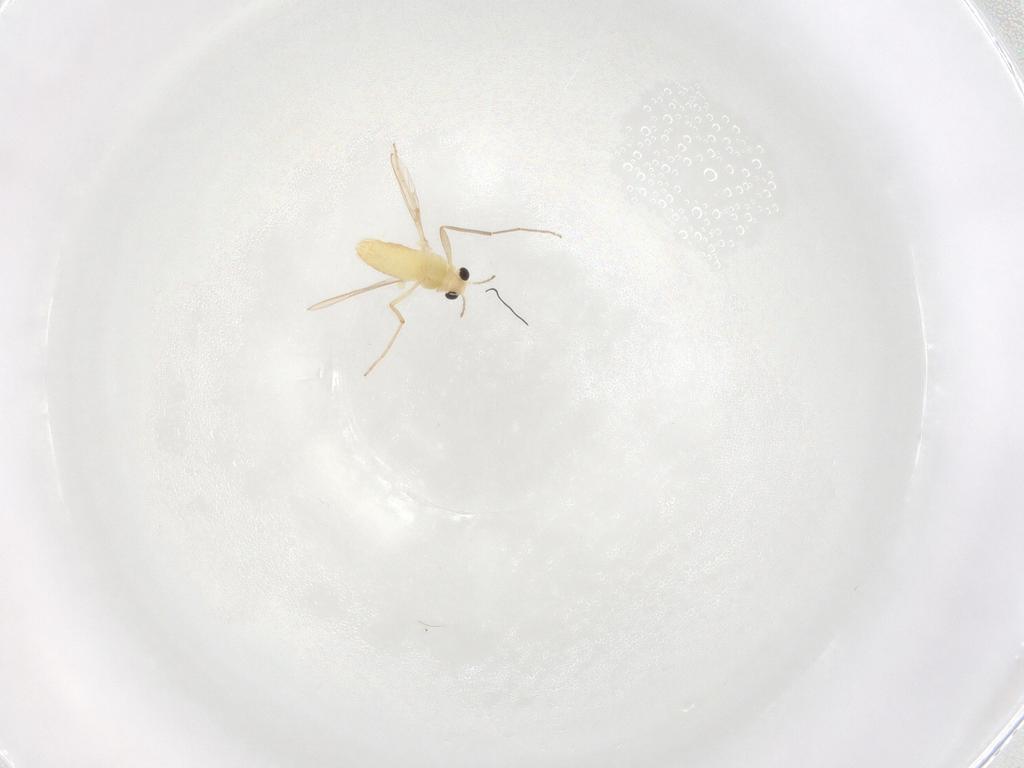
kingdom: Animalia
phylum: Arthropoda
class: Insecta
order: Diptera
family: Chironomidae
